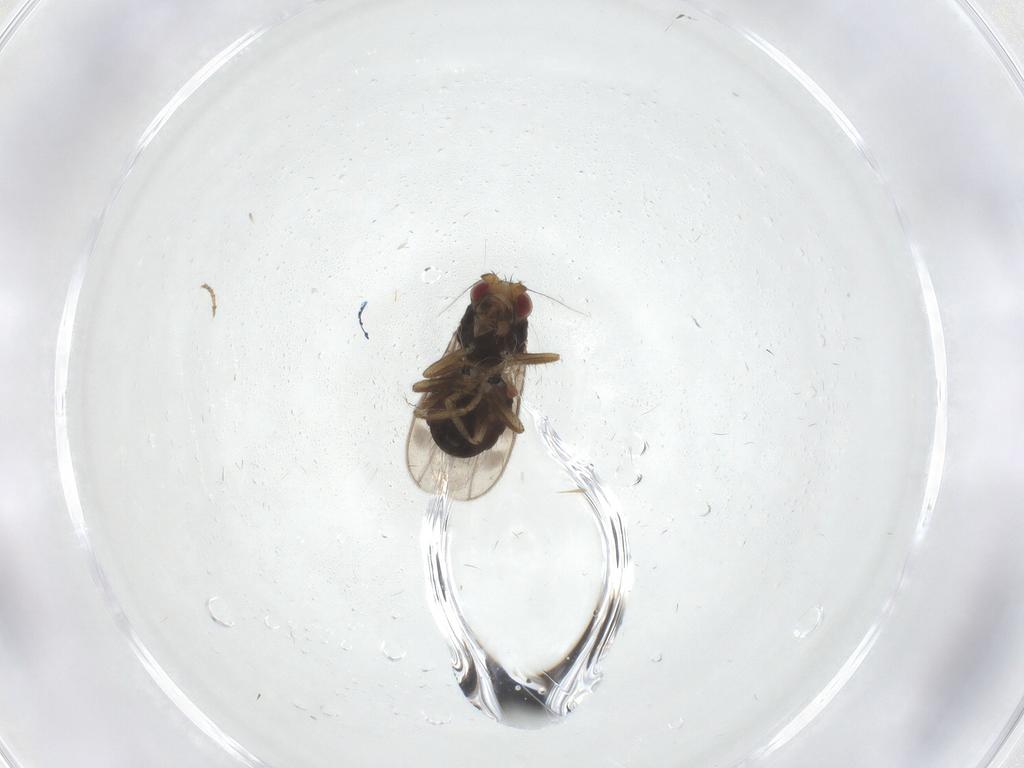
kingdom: Animalia
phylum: Arthropoda
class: Insecta
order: Diptera
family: Sphaeroceridae
